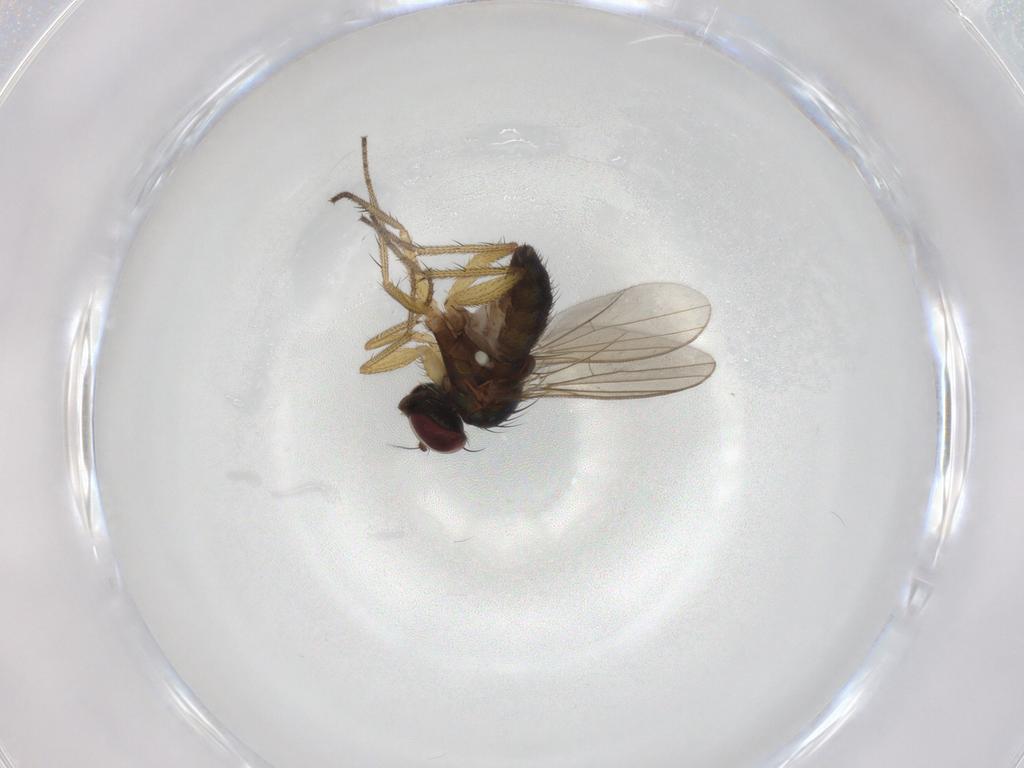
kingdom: Animalia
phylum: Arthropoda
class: Insecta
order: Diptera
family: Dolichopodidae
